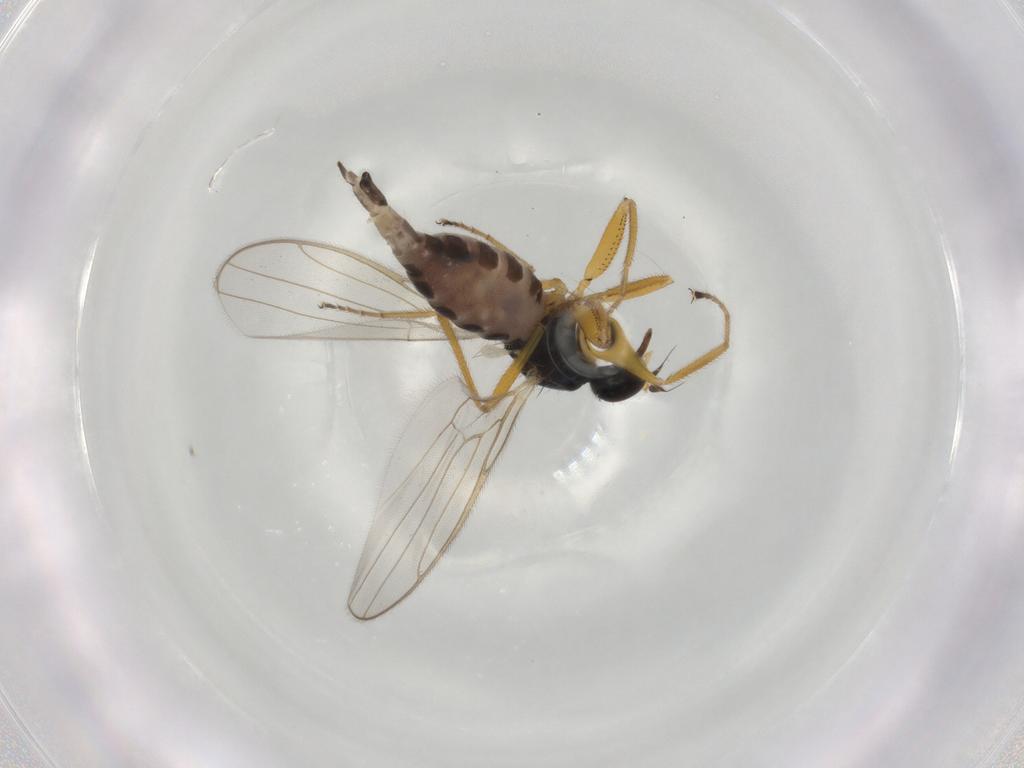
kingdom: Animalia
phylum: Arthropoda
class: Insecta
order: Diptera
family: Hybotidae
